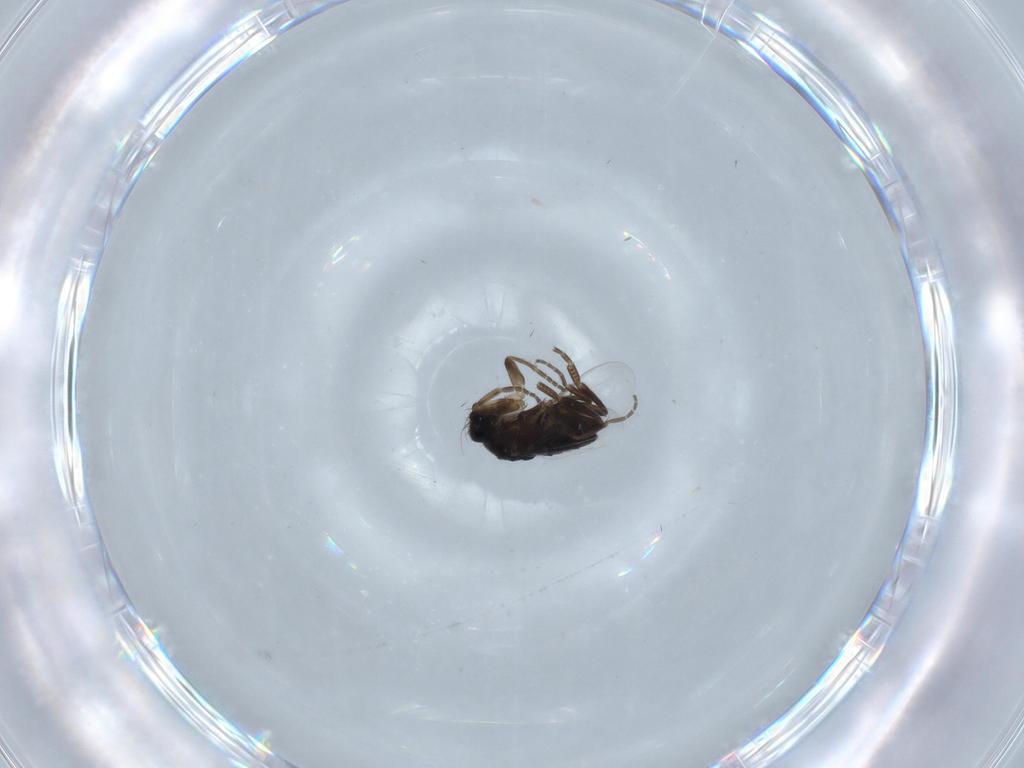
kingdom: Animalia
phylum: Arthropoda
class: Insecta
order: Diptera
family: Phoridae
